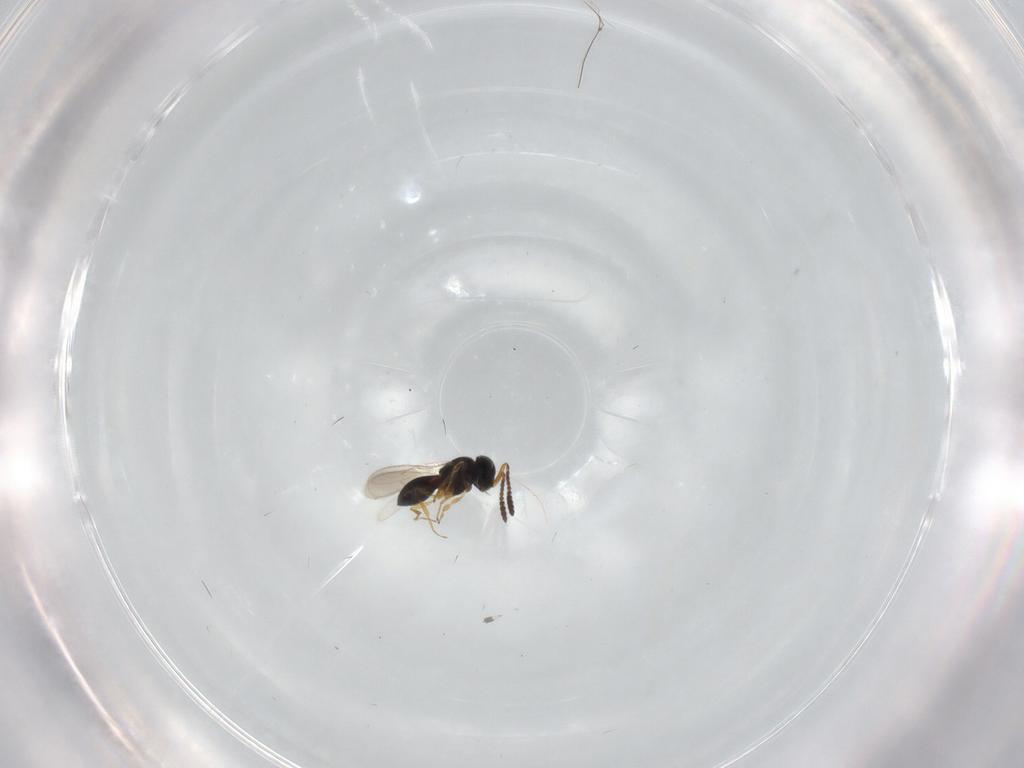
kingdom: Animalia
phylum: Arthropoda
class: Insecta
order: Hymenoptera
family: Scelionidae
